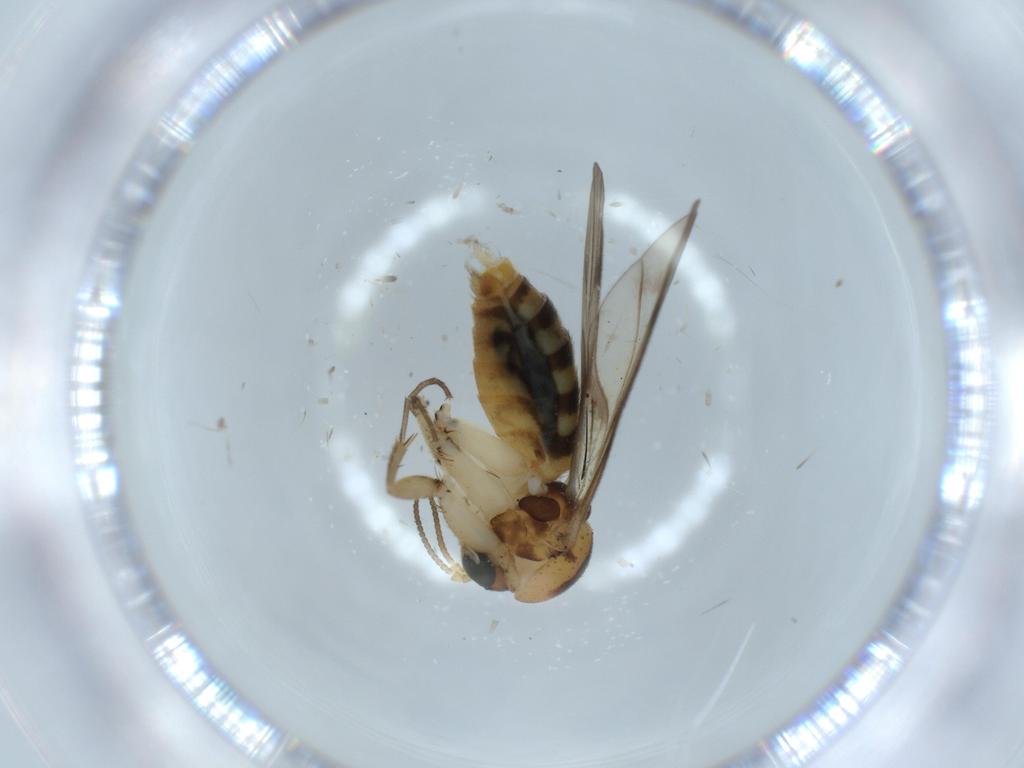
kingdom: Animalia
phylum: Arthropoda
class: Insecta
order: Diptera
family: Mycetophilidae
